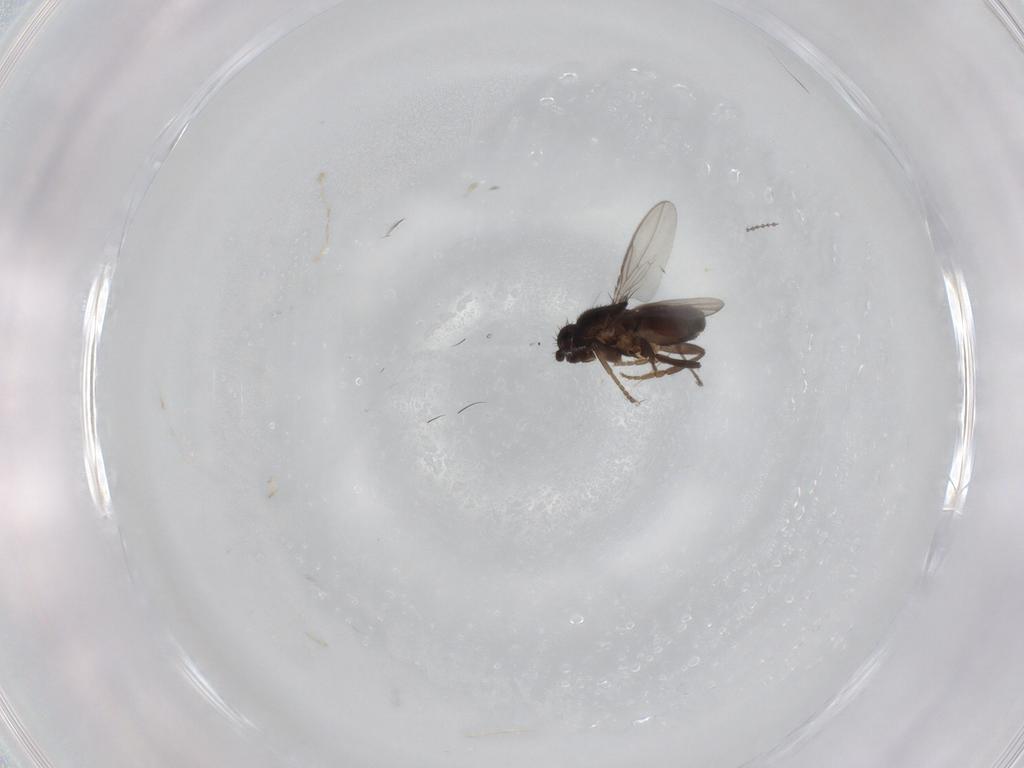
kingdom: Animalia
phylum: Arthropoda
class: Insecta
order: Diptera
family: Sphaeroceridae
